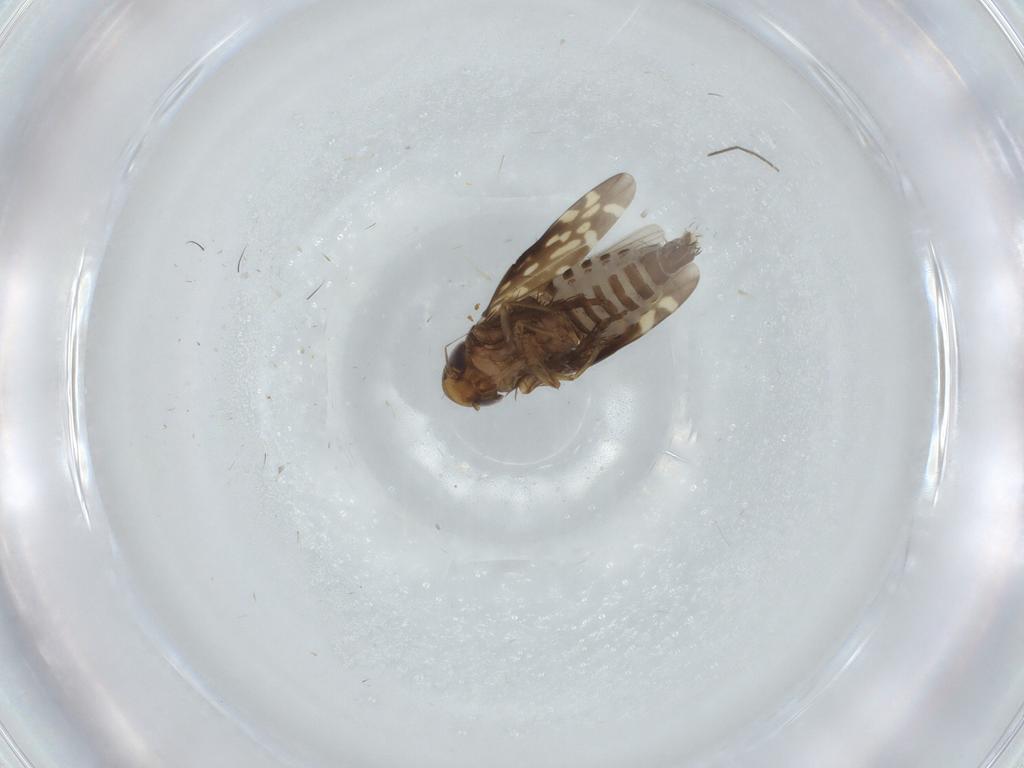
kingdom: Animalia
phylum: Arthropoda
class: Insecta
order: Hemiptera
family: Cicadellidae
